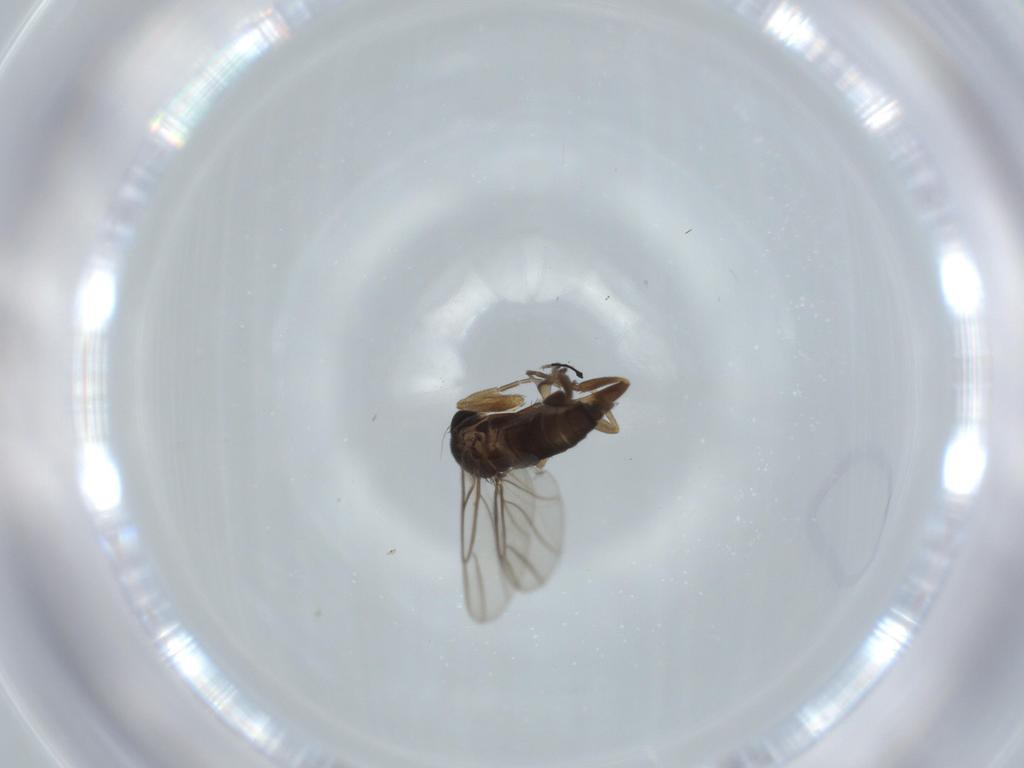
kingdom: Animalia
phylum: Arthropoda
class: Insecta
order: Diptera
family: Phoridae
